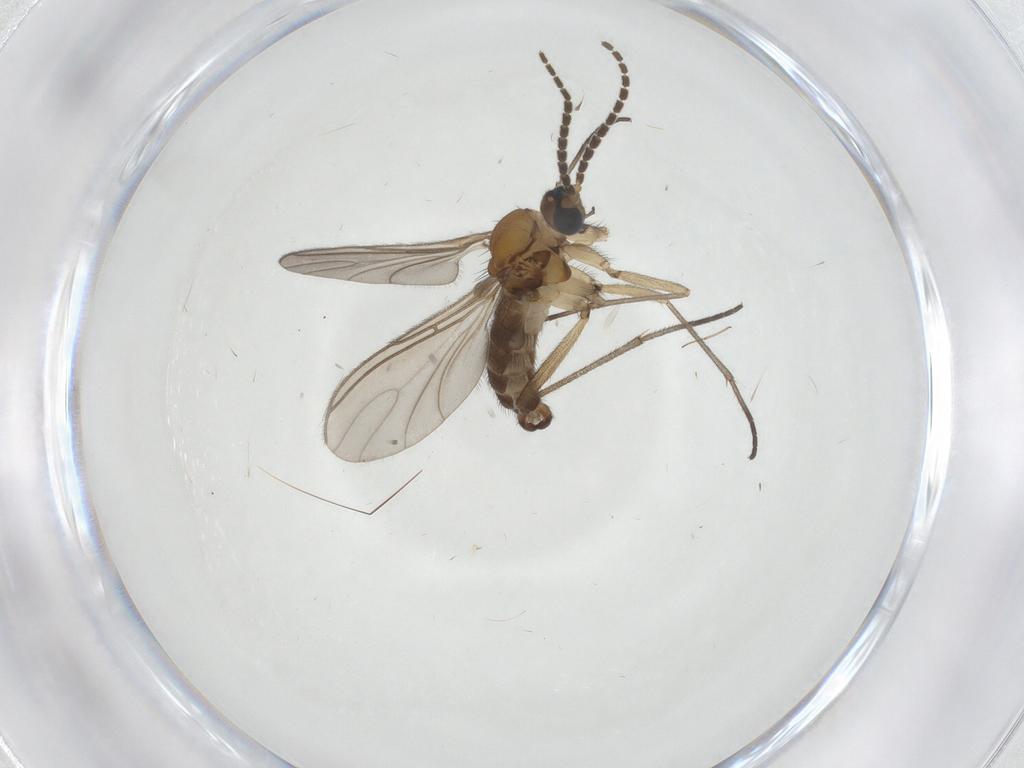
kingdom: Animalia
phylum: Arthropoda
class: Insecta
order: Diptera
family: Sciaridae
